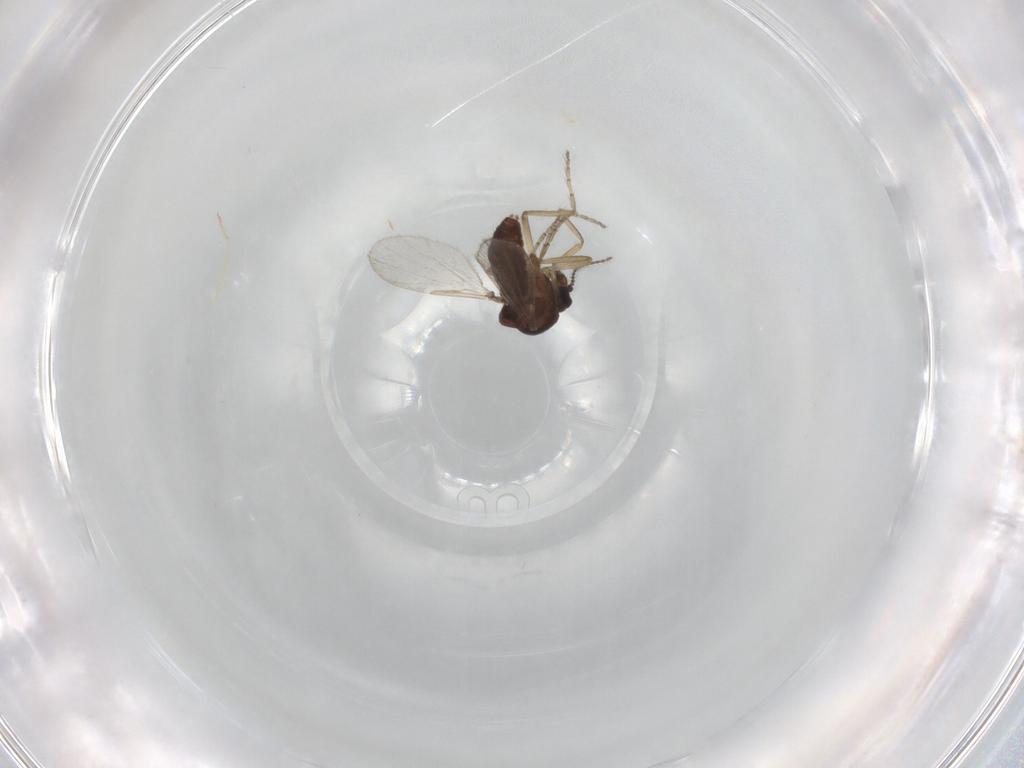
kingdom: Animalia
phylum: Arthropoda
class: Insecta
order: Diptera
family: Ceratopogonidae
